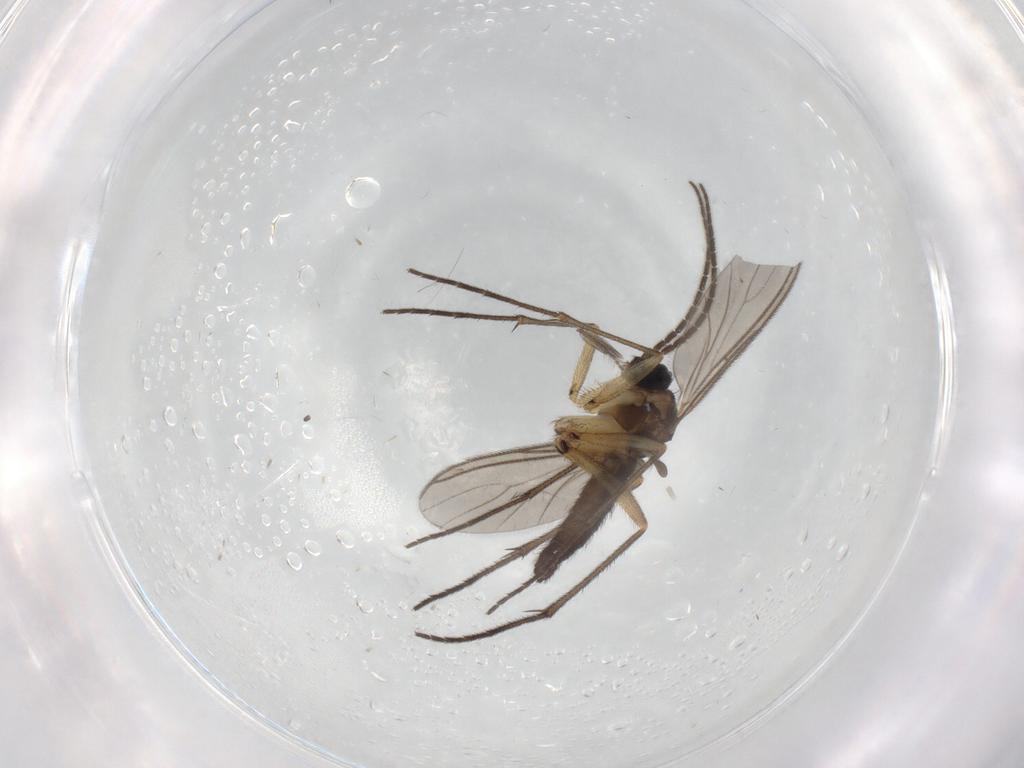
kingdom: Animalia
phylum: Arthropoda
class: Insecta
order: Diptera
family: Sciaridae
